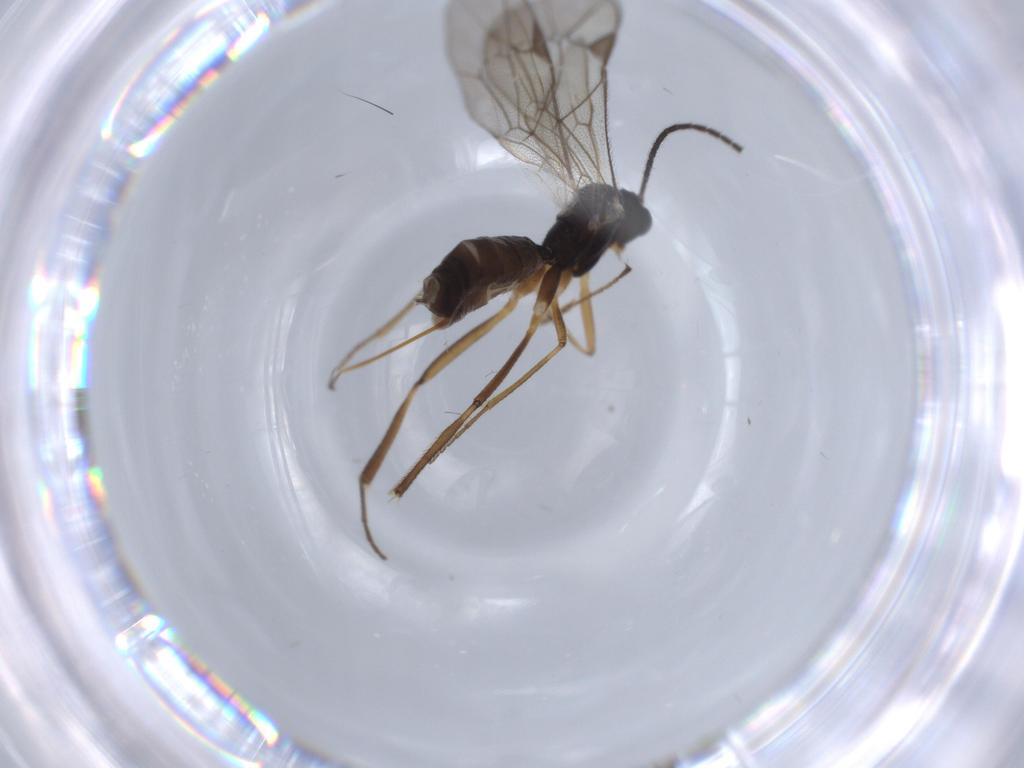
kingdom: Animalia
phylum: Arthropoda
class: Insecta
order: Hymenoptera
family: Ichneumonidae
